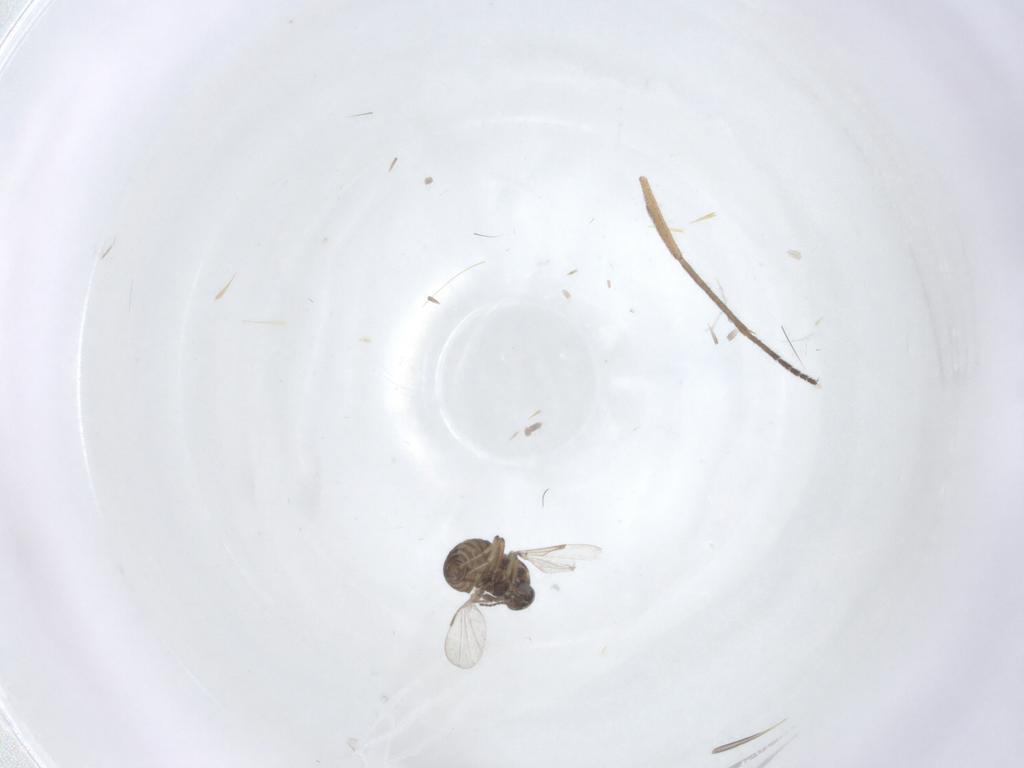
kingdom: Animalia
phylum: Arthropoda
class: Insecta
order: Diptera
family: Ceratopogonidae
